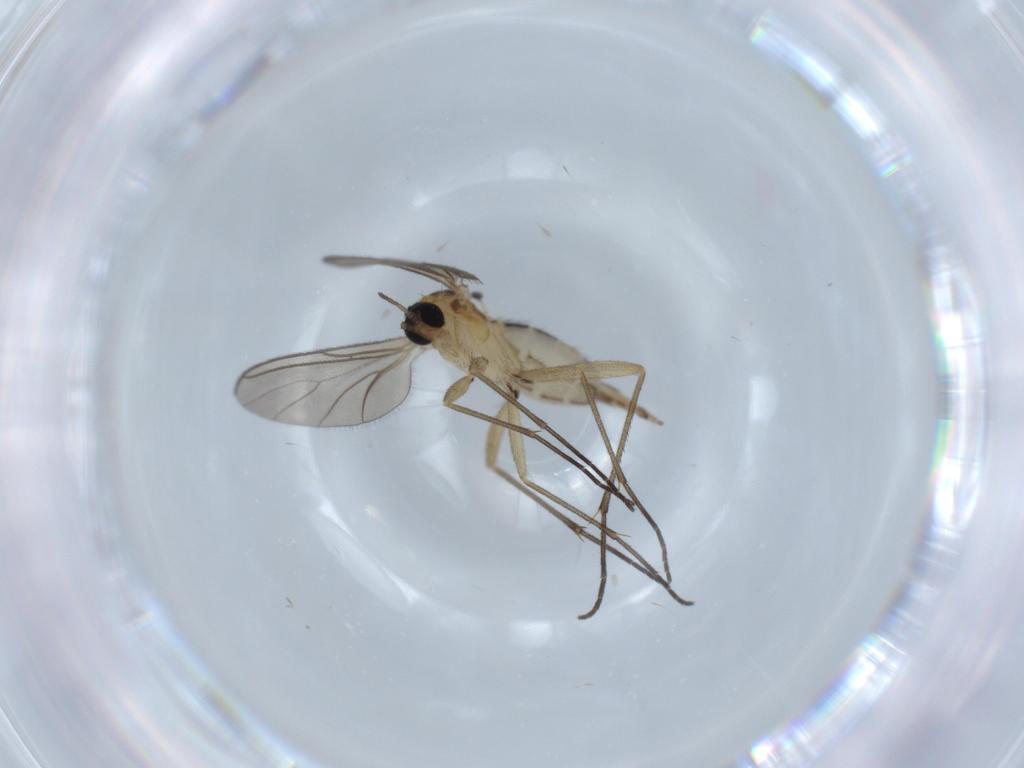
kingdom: Animalia
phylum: Arthropoda
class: Insecta
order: Diptera
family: Sciaridae
